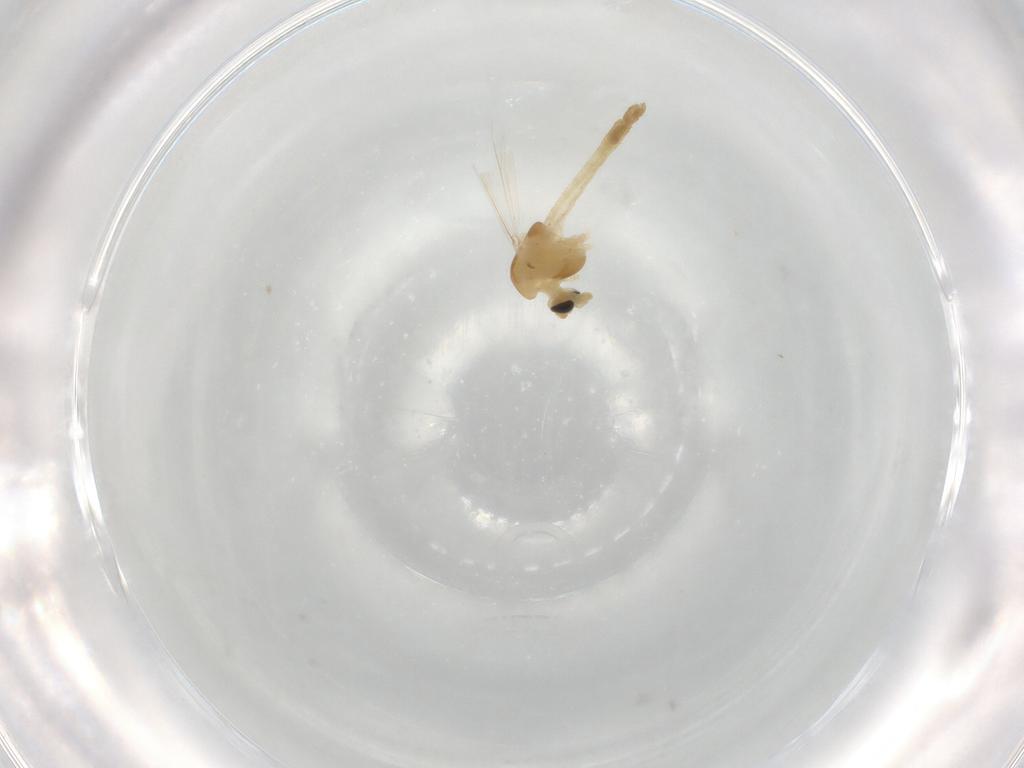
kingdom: Animalia
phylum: Arthropoda
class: Insecta
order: Diptera
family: Chironomidae
